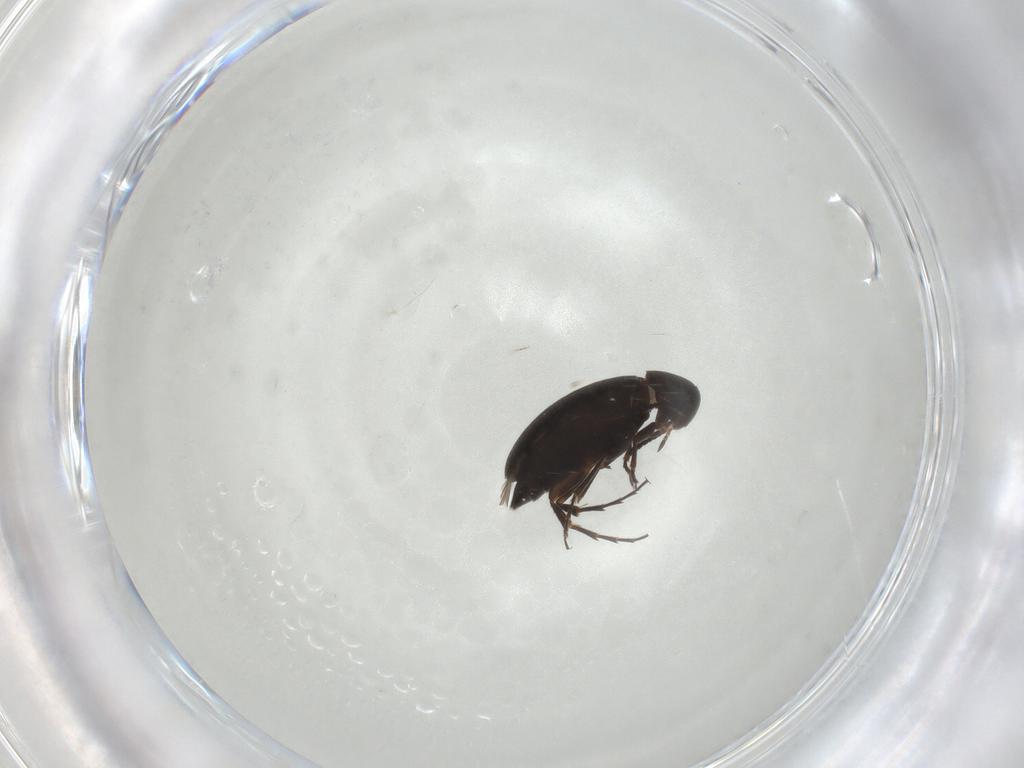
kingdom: Animalia
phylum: Arthropoda
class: Insecta
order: Coleoptera
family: Scraptiidae
